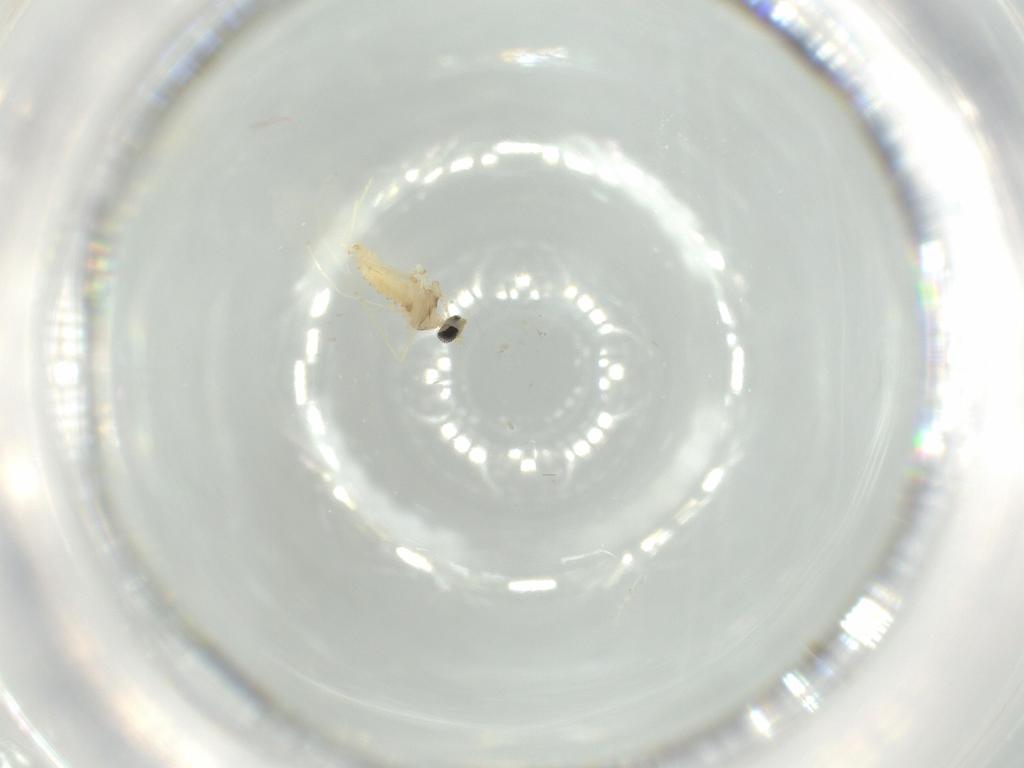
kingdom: Animalia
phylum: Arthropoda
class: Insecta
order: Diptera
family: Cecidomyiidae
